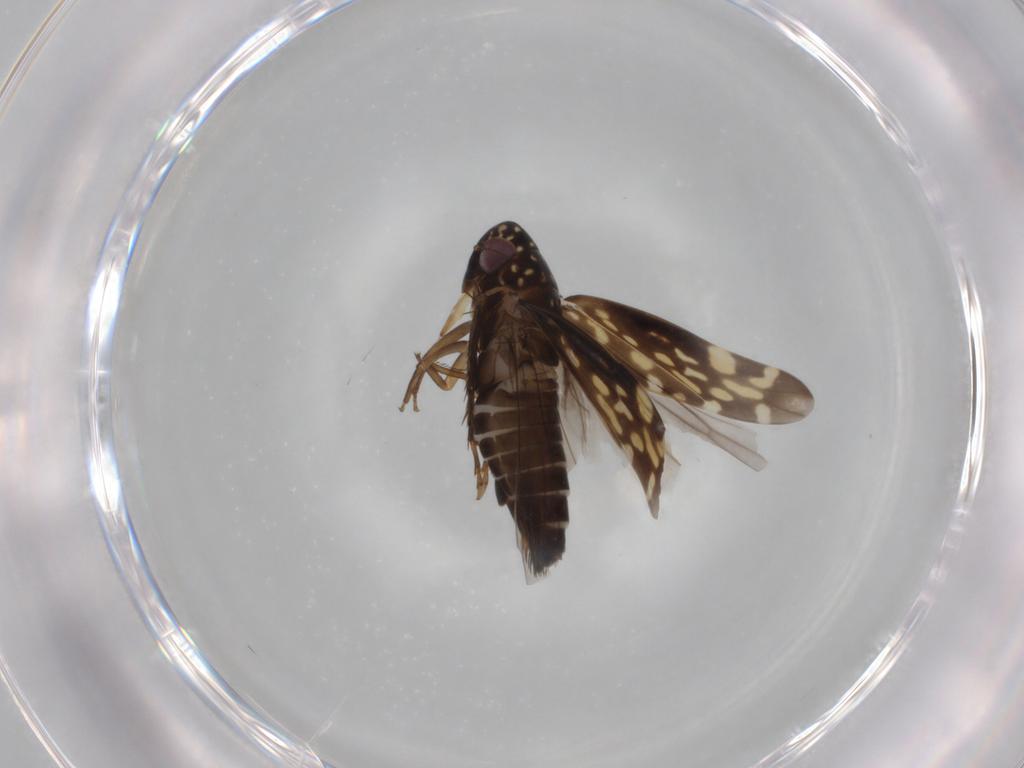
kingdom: Animalia
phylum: Arthropoda
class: Insecta
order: Hemiptera
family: Cicadellidae
